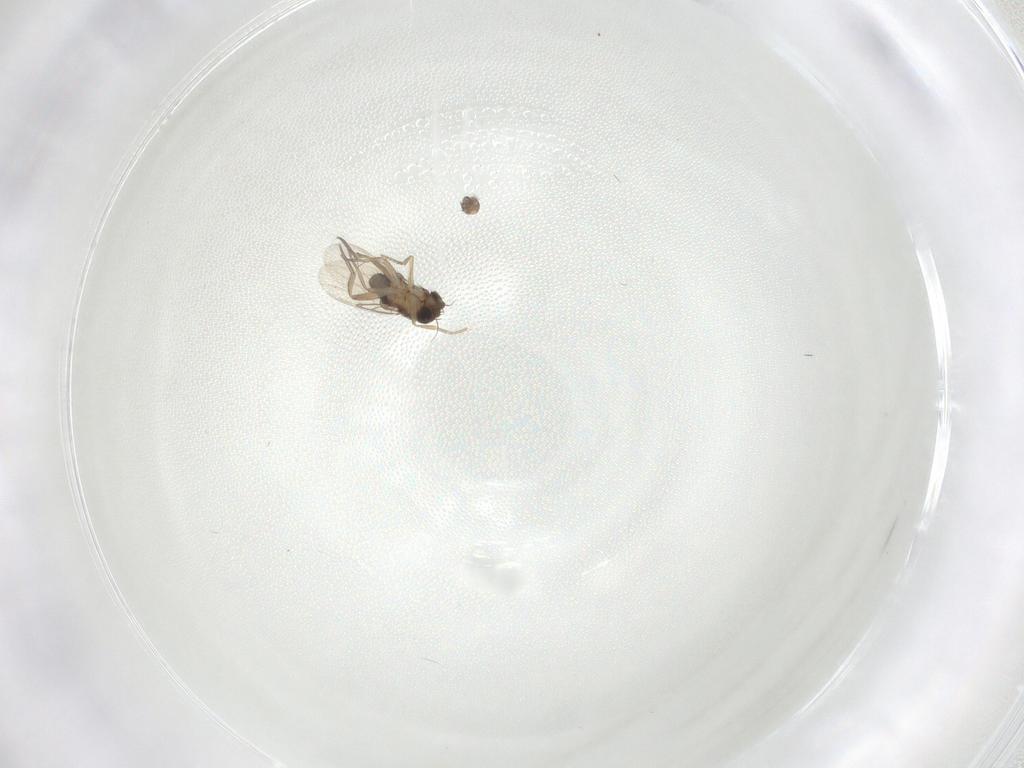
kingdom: Animalia
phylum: Arthropoda
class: Insecta
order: Diptera
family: Phoridae
